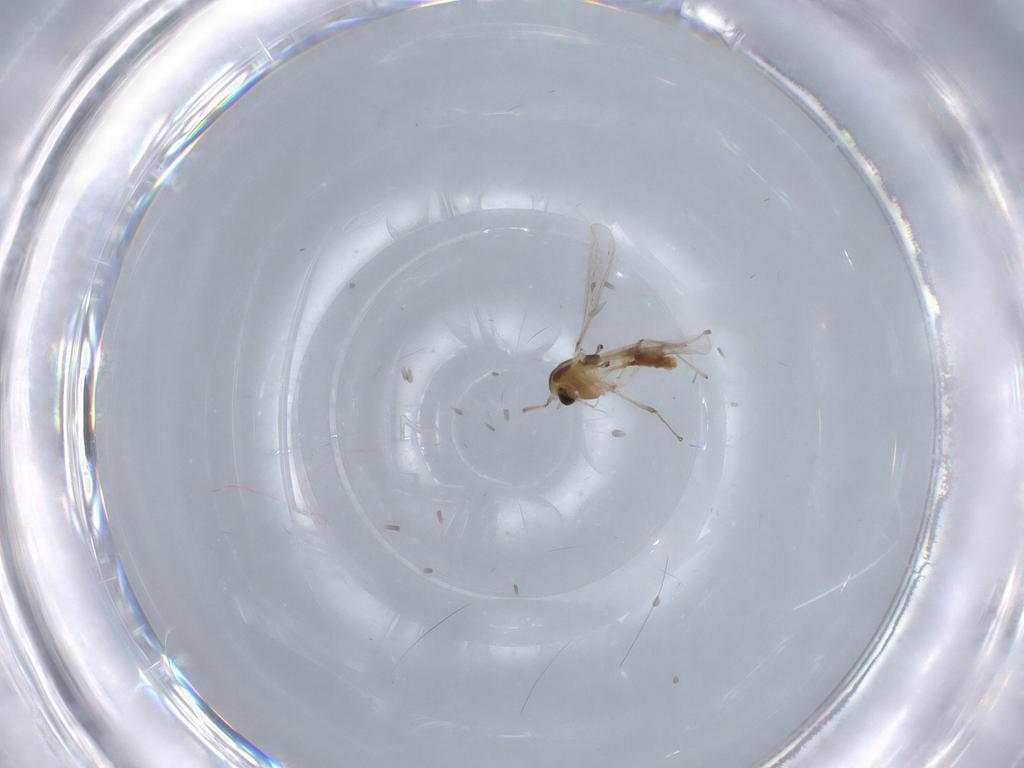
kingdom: Animalia
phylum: Arthropoda
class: Insecta
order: Diptera
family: Chironomidae
